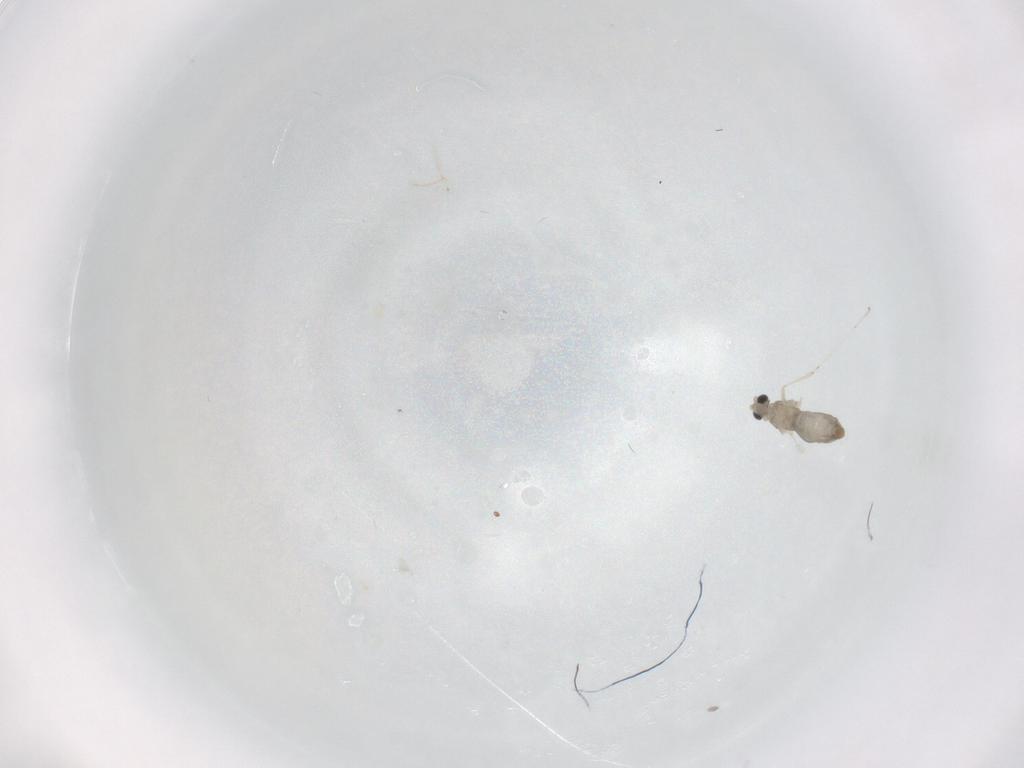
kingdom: Animalia
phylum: Arthropoda
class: Insecta
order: Diptera
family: Cecidomyiidae
